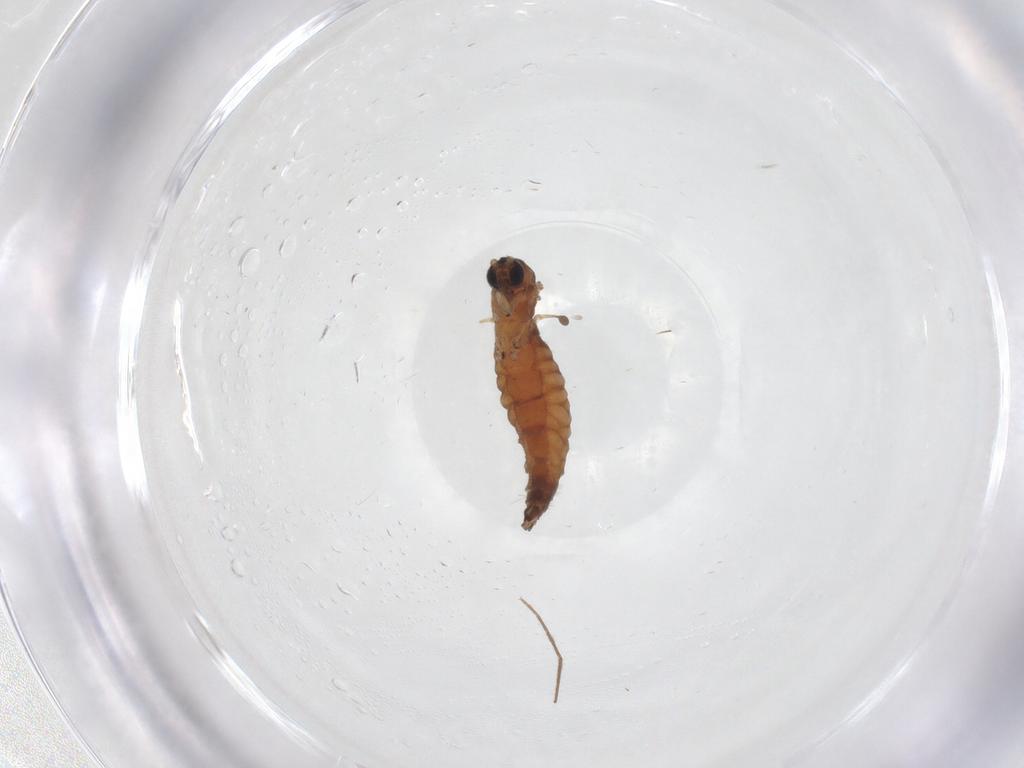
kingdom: Animalia
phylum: Arthropoda
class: Insecta
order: Diptera
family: Sciaridae
